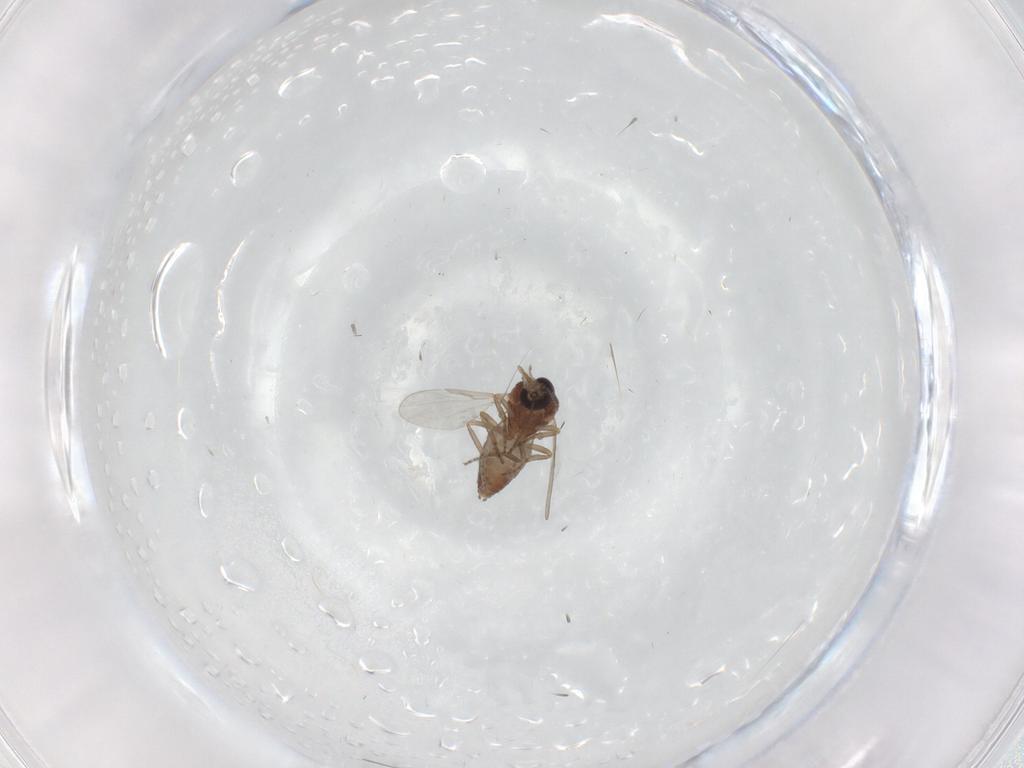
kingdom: Animalia
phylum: Arthropoda
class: Insecta
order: Diptera
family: Ceratopogonidae
